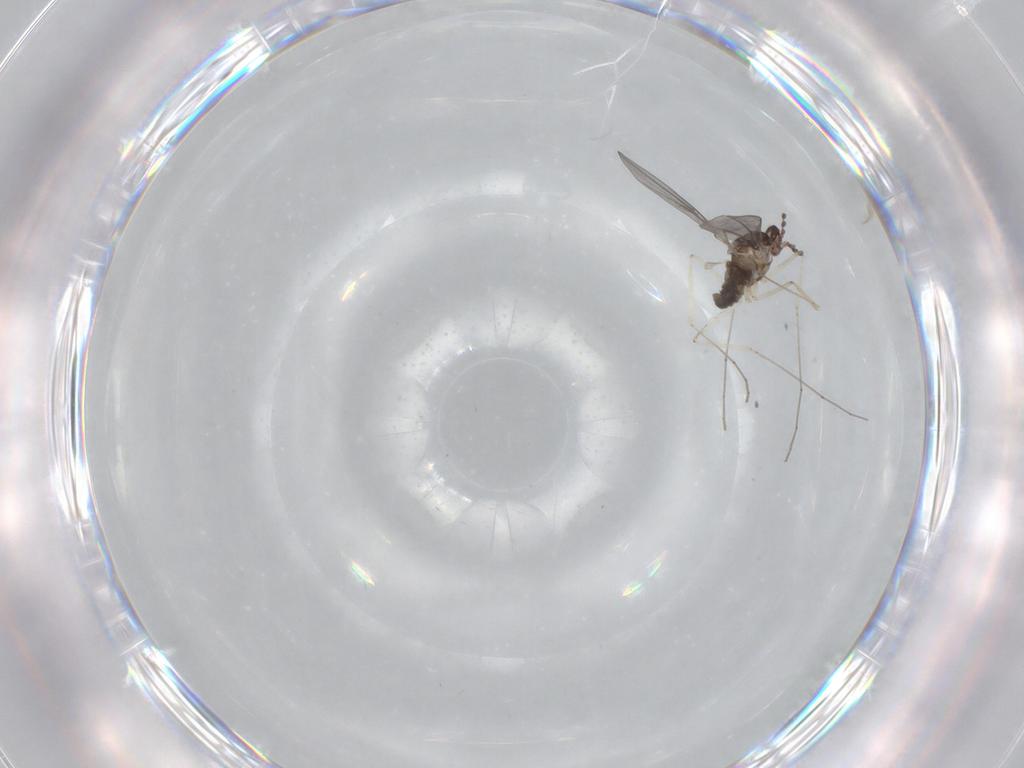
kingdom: Animalia
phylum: Arthropoda
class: Insecta
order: Diptera
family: Cecidomyiidae
